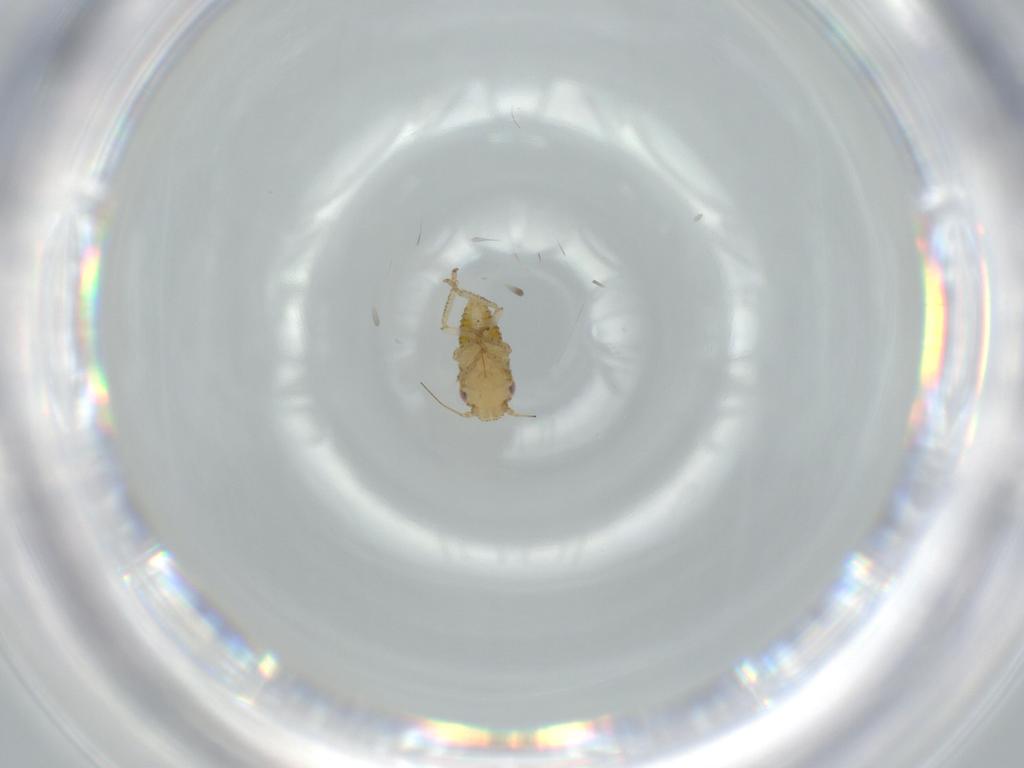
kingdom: Animalia
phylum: Arthropoda
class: Insecta
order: Hemiptera
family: Cicadellidae
